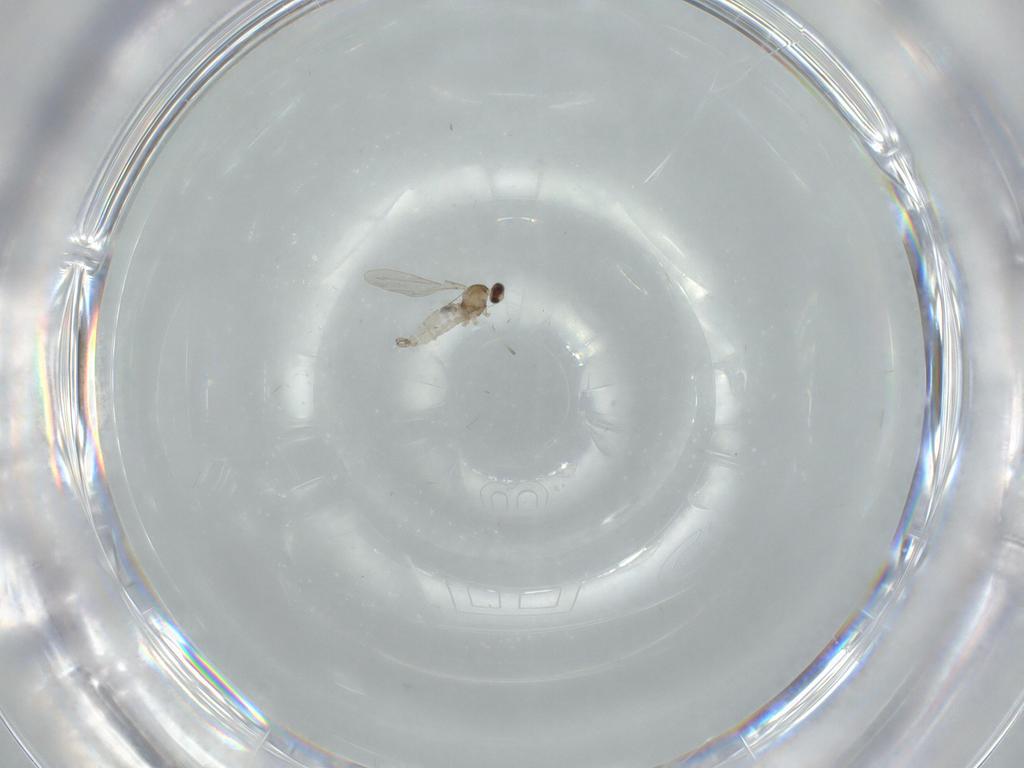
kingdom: Animalia
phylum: Arthropoda
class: Insecta
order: Diptera
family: Cecidomyiidae
